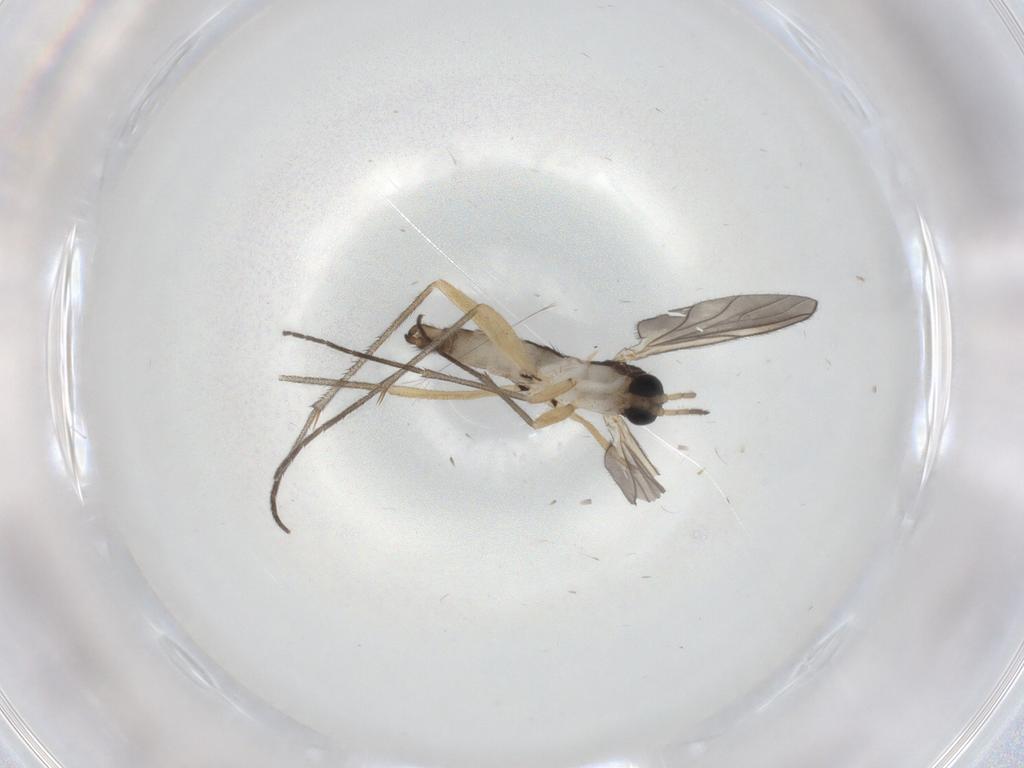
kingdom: Animalia
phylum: Arthropoda
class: Insecta
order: Diptera
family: Sciaridae
